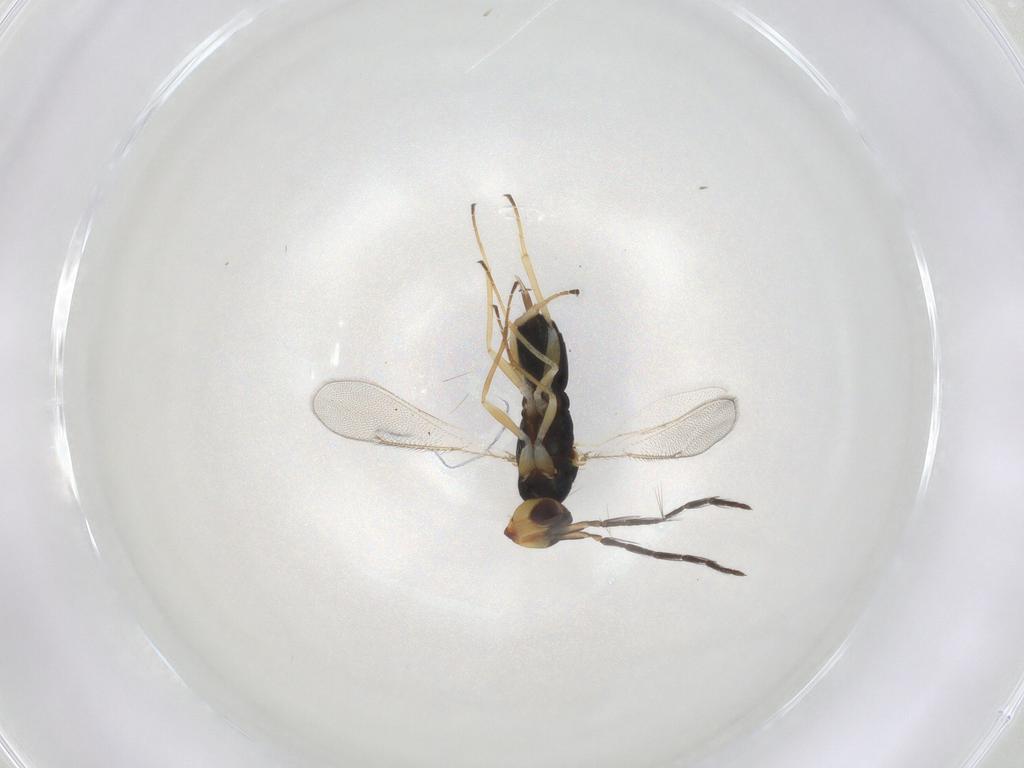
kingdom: Animalia
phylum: Arthropoda
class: Insecta
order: Hymenoptera
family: Eulophidae
